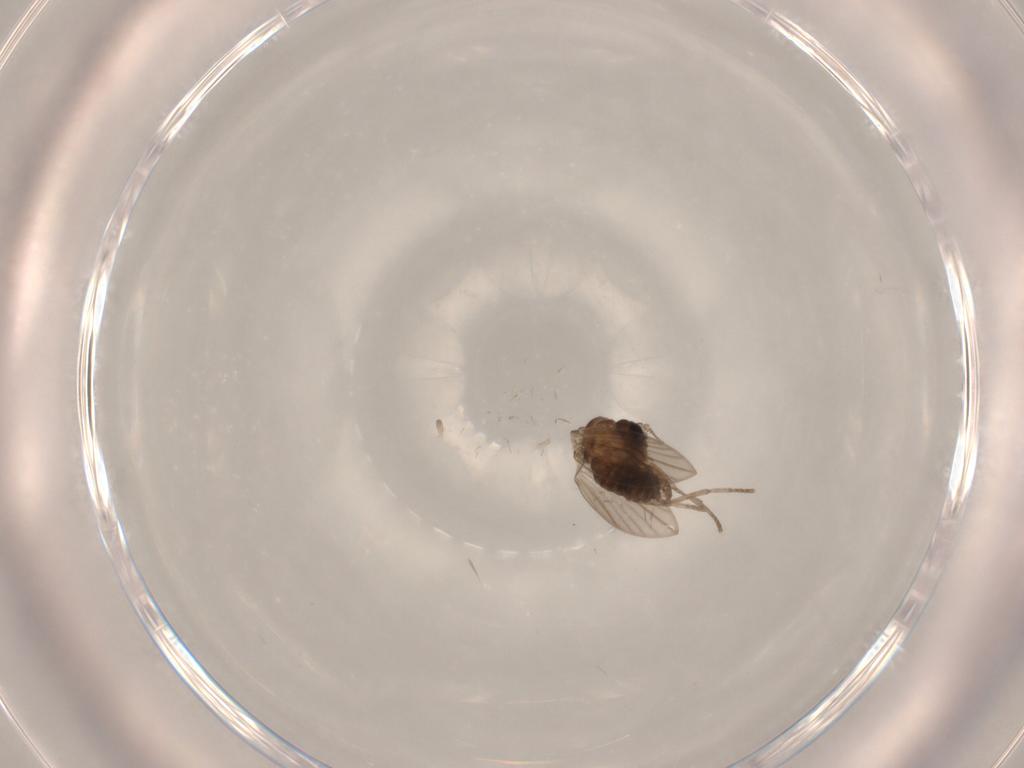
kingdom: Animalia
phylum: Arthropoda
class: Insecta
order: Diptera
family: Psychodidae
